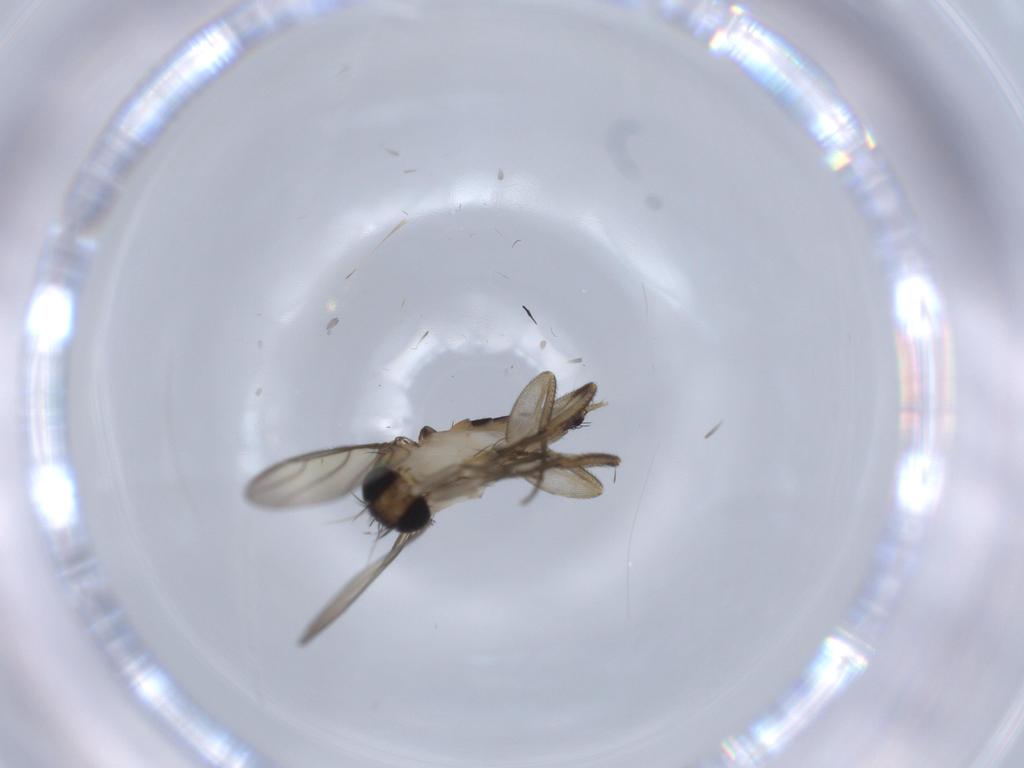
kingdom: Animalia
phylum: Arthropoda
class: Insecta
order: Diptera
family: Phoridae
